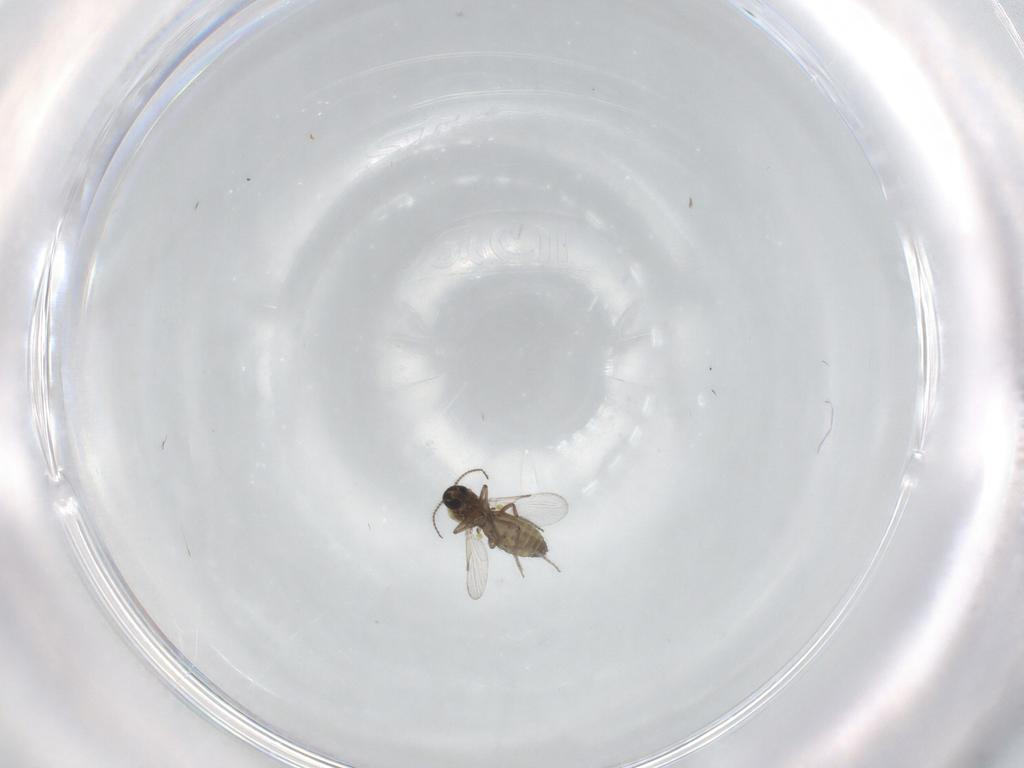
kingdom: Animalia
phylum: Arthropoda
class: Insecta
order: Diptera
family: Ceratopogonidae
